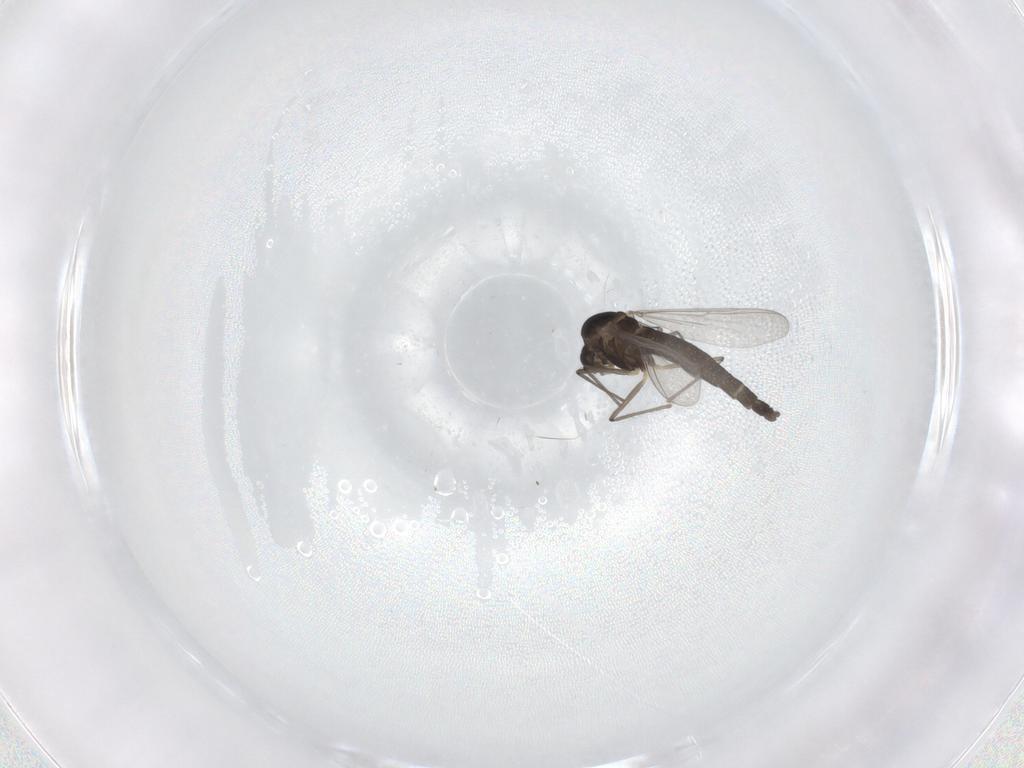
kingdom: Animalia
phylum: Arthropoda
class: Insecta
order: Diptera
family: Chironomidae
